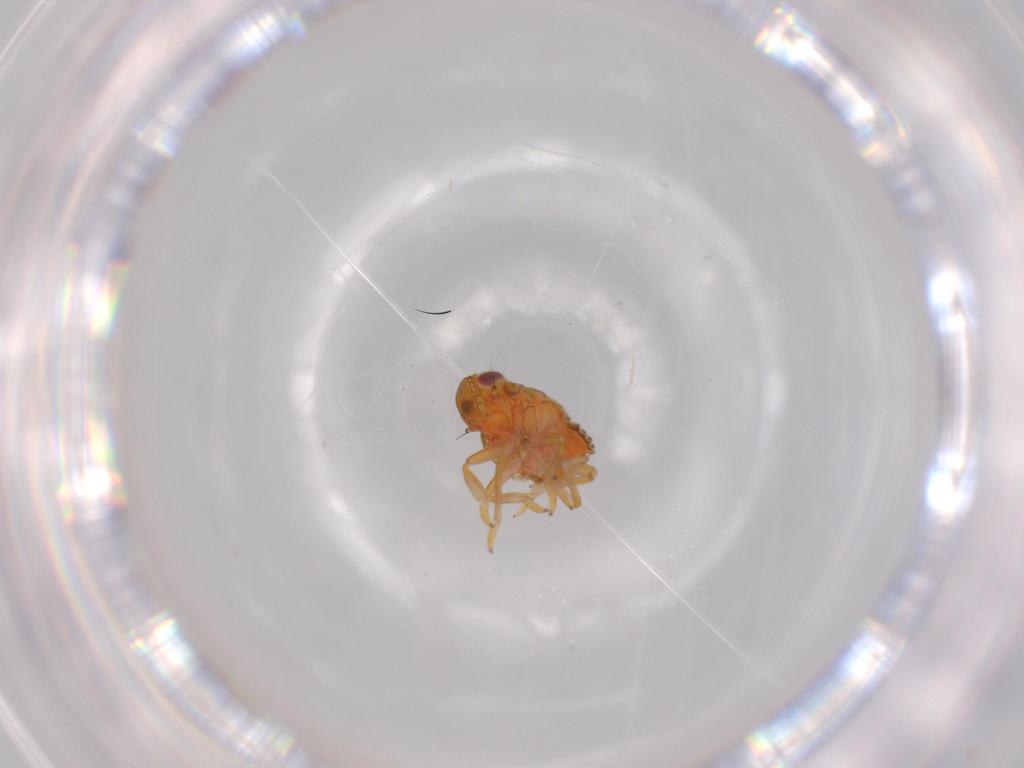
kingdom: Animalia
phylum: Arthropoda
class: Insecta
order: Hemiptera
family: Issidae
